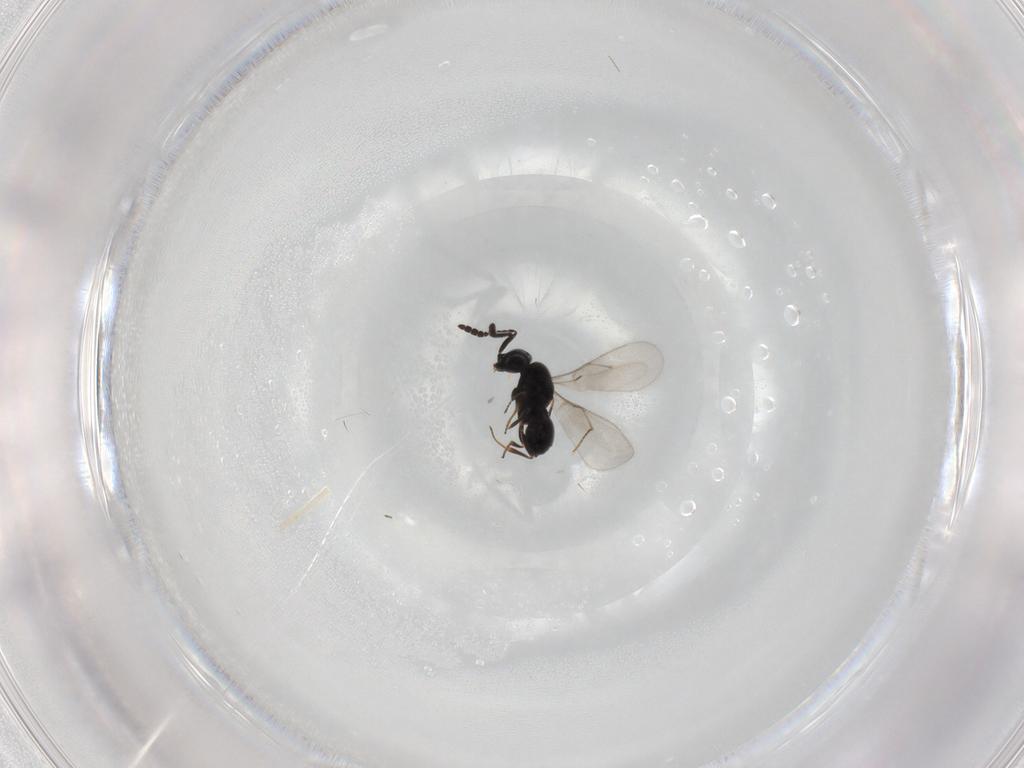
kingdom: Animalia
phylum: Arthropoda
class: Insecta
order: Hymenoptera
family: Scelionidae
